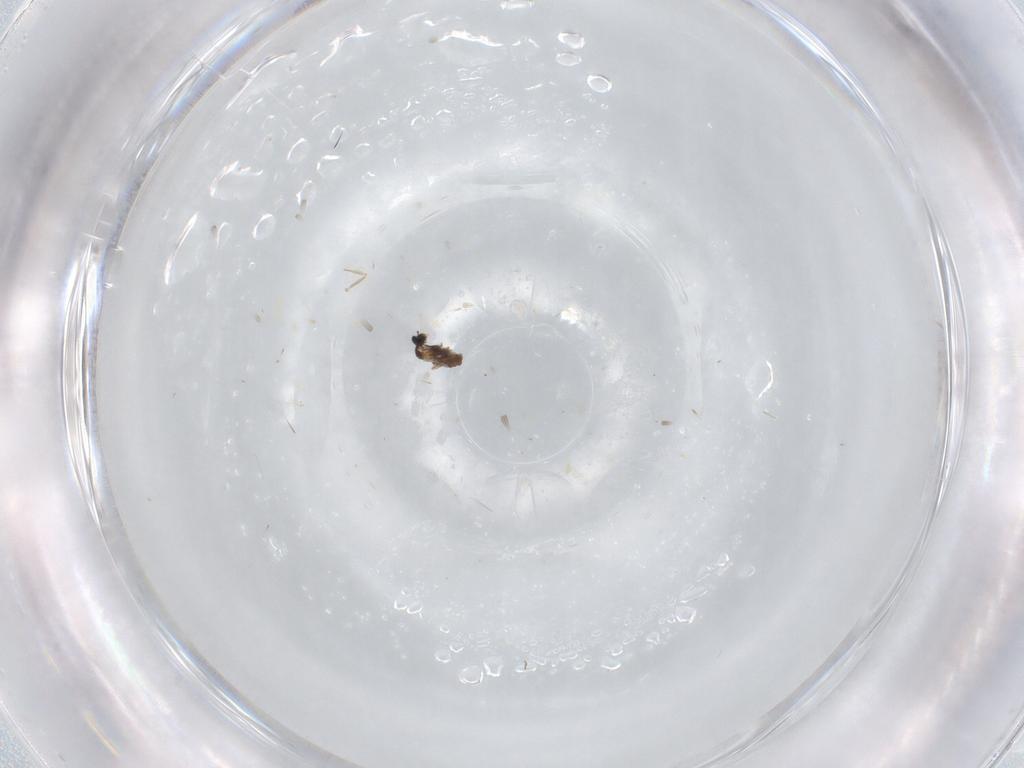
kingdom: Animalia
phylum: Arthropoda
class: Insecta
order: Diptera
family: Cecidomyiidae
